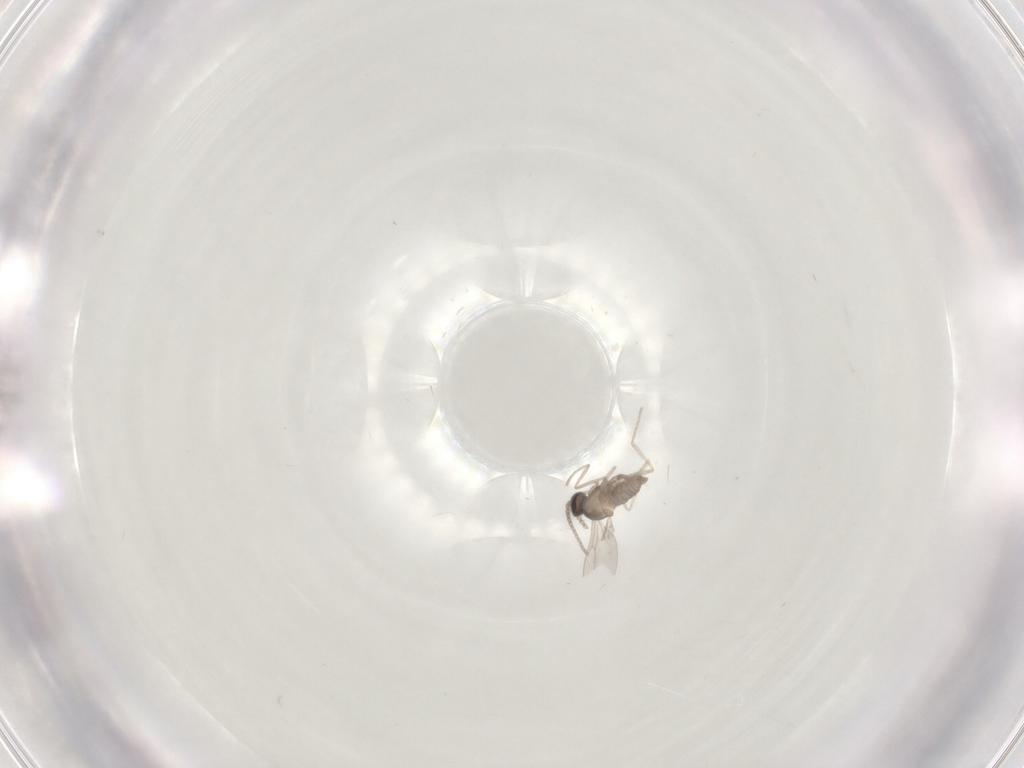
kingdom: Animalia
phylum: Arthropoda
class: Insecta
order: Diptera
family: Cecidomyiidae
